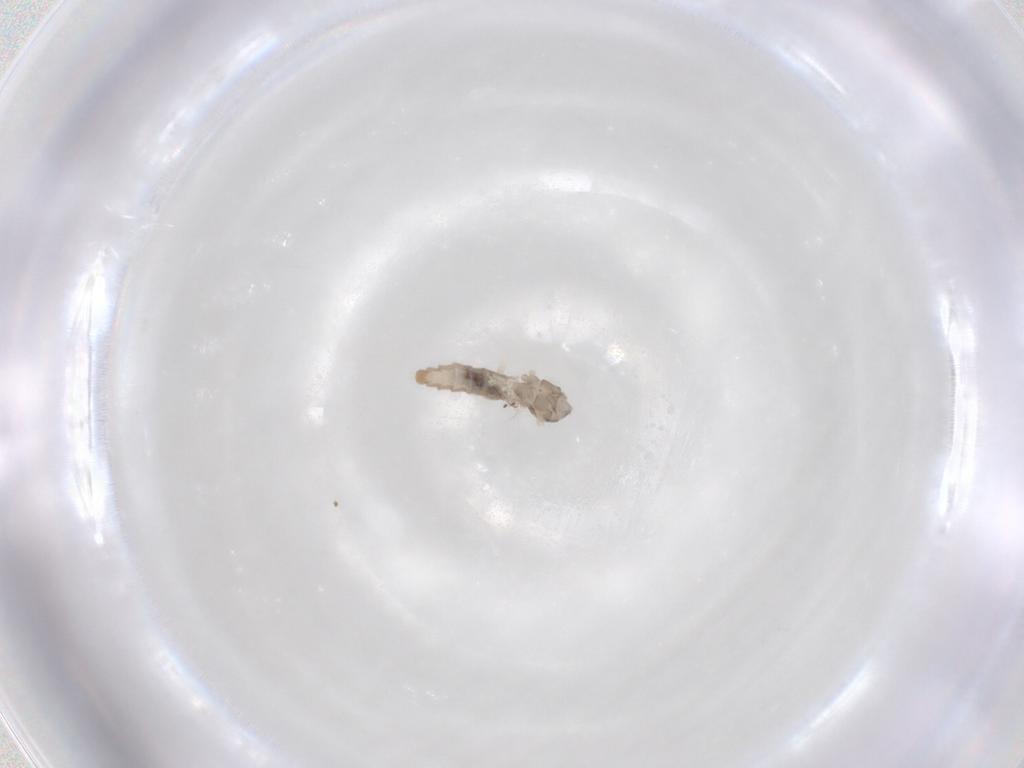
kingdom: Animalia
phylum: Arthropoda
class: Insecta
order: Diptera
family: Cecidomyiidae
